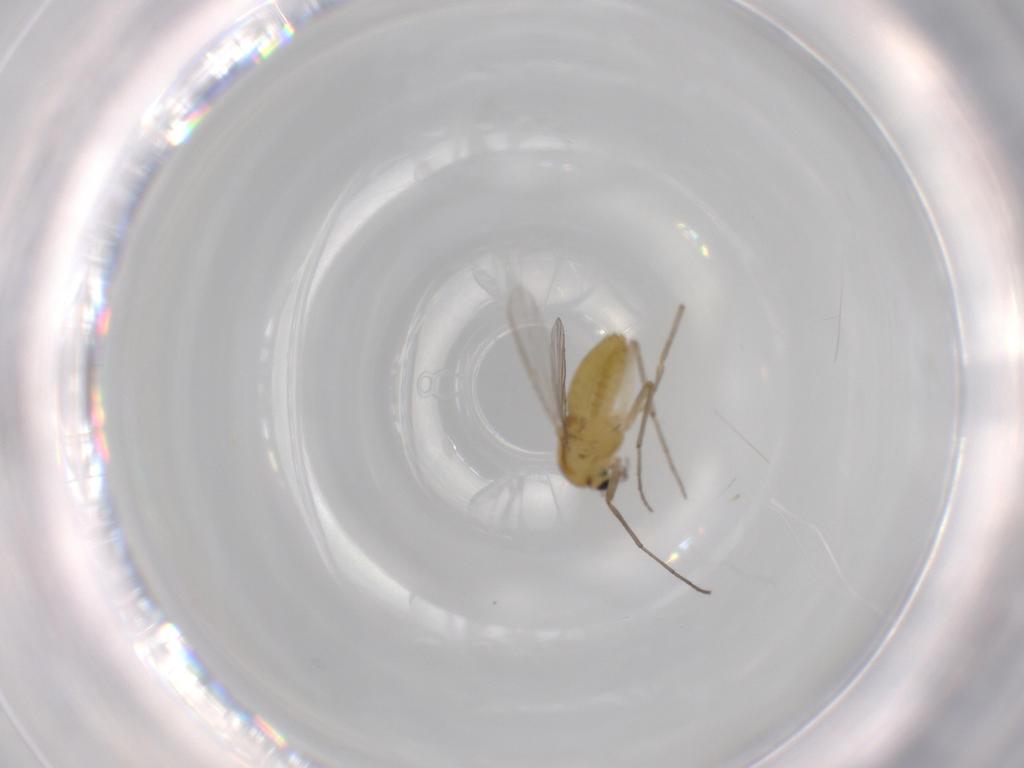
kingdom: Animalia
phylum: Arthropoda
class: Insecta
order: Diptera
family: Chironomidae
